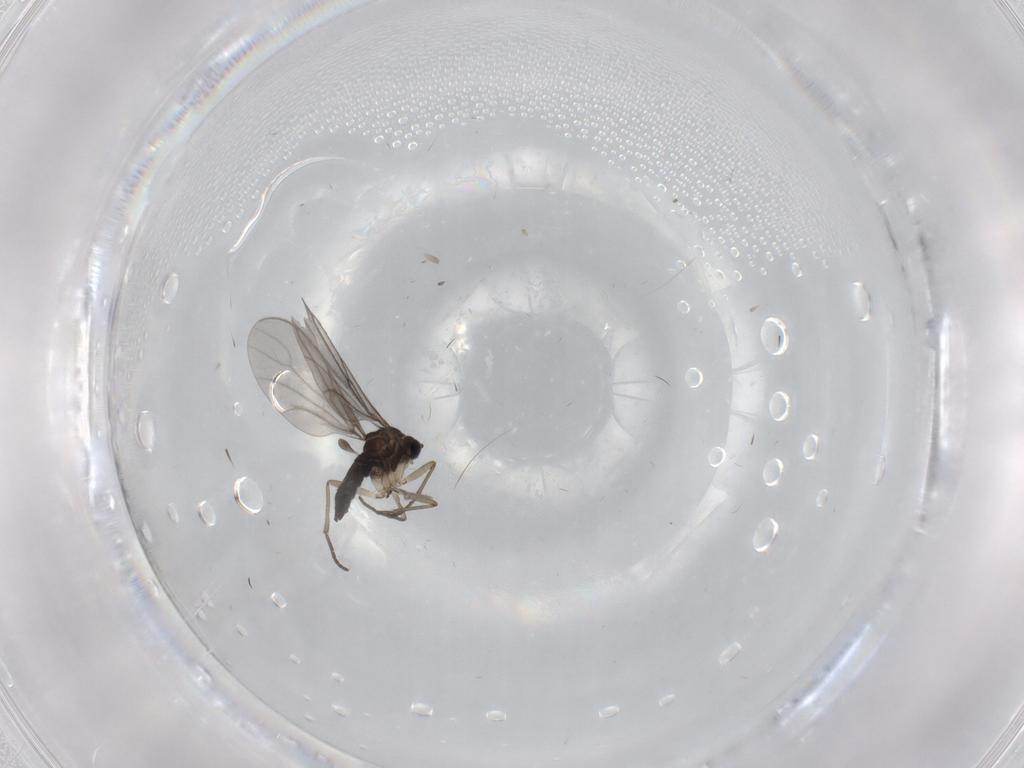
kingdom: Animalia
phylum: Arthropoda
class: Insecta
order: Diptera
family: Sciaridae
